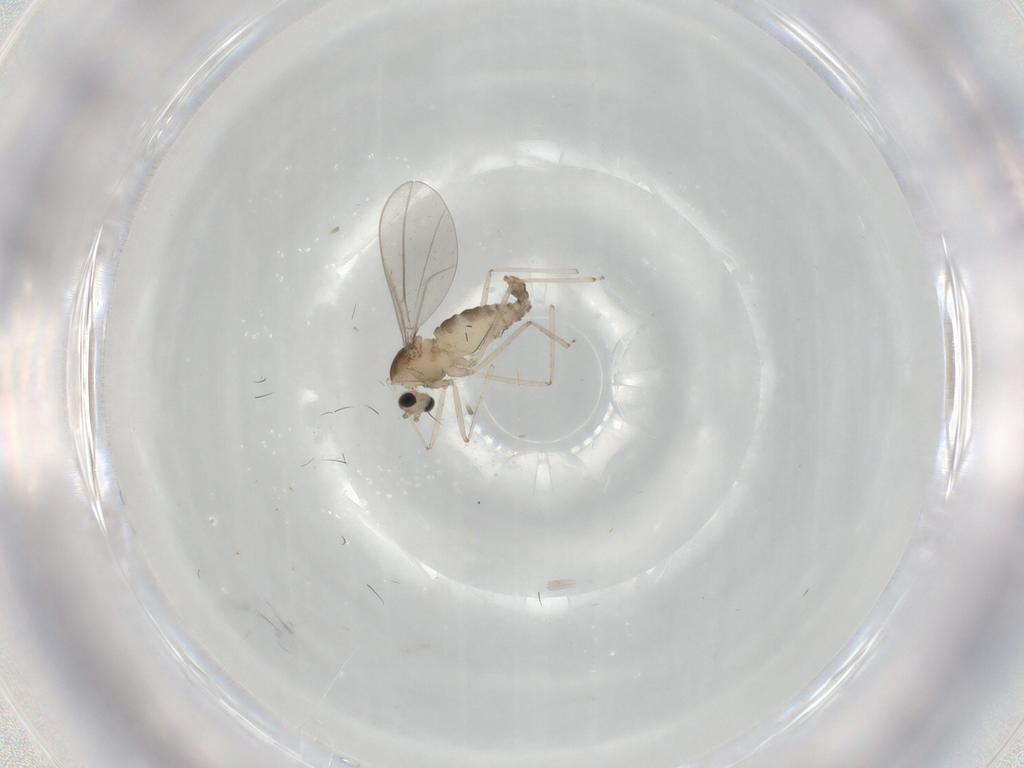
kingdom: Animalia
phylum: Arthropoda
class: Insecta
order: Diptera
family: Cecidomyiidae
